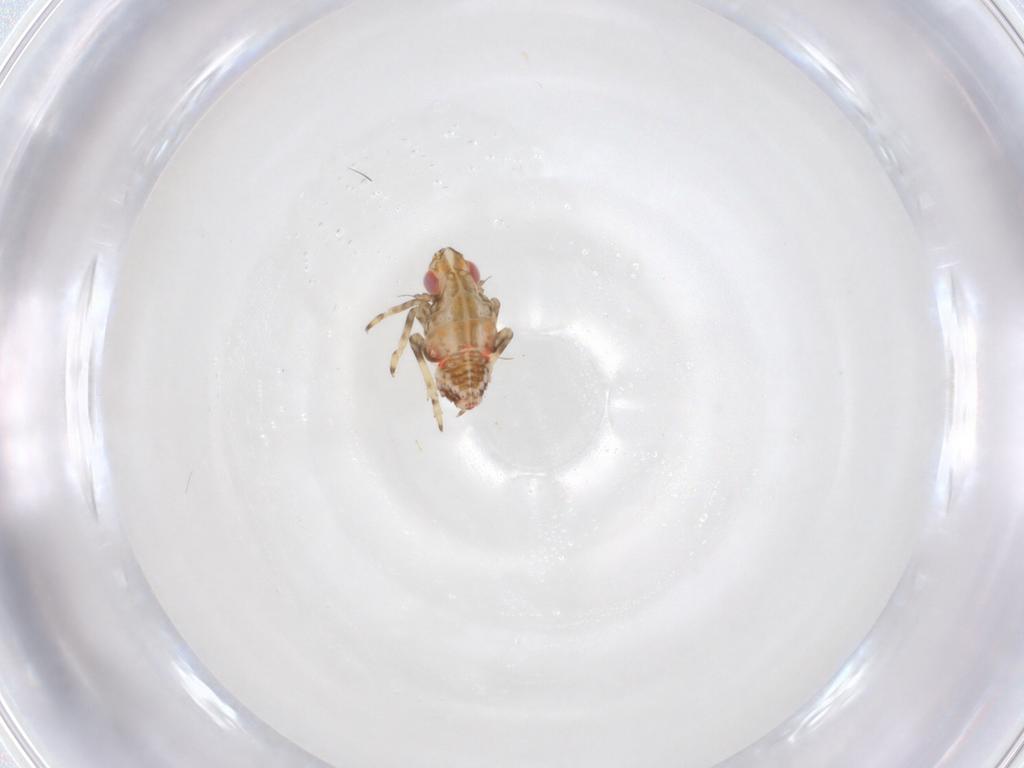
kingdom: Animalia
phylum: Arthropoda
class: Insecta
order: Hemiptera
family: Tropiduchidae
